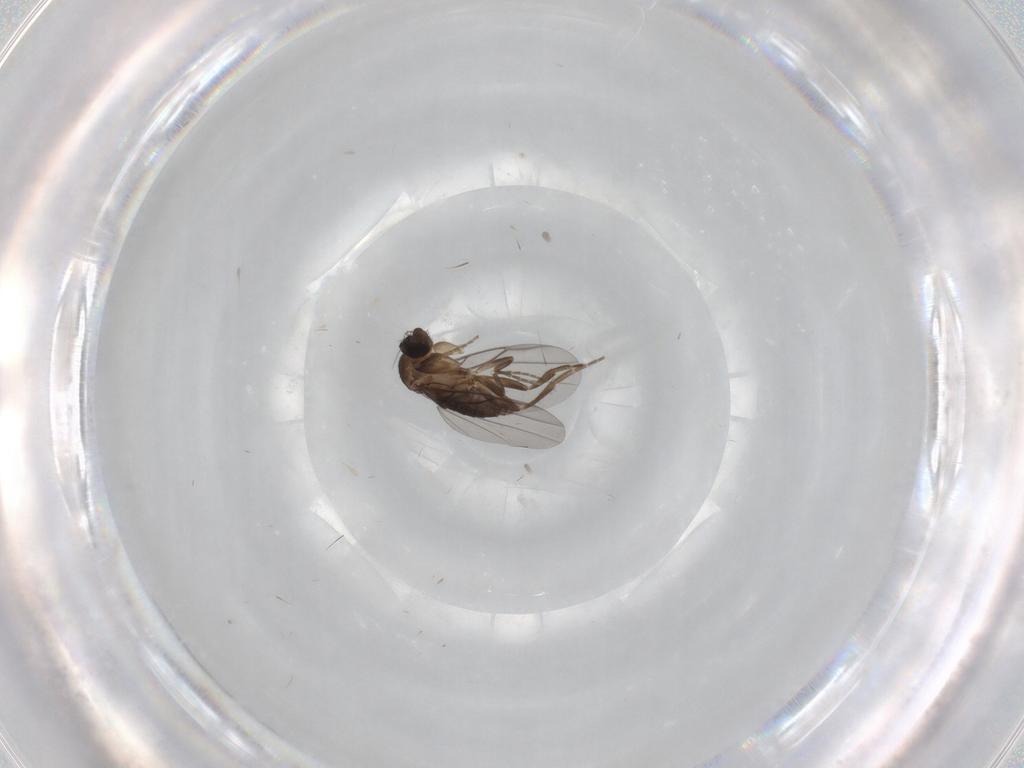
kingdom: Animalia
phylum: Arthropoda
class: Insecta
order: Diptera
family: Phoridae
